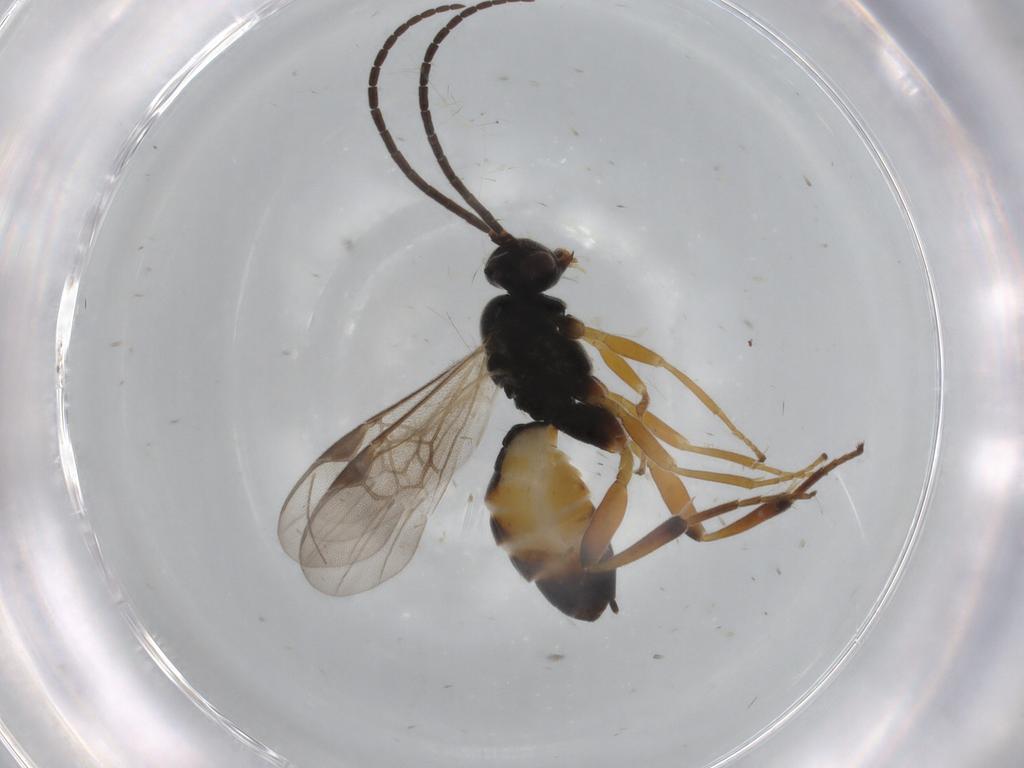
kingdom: Animalia
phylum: Arthropoda
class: Insecta
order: Hymenoptera
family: Braconidae
